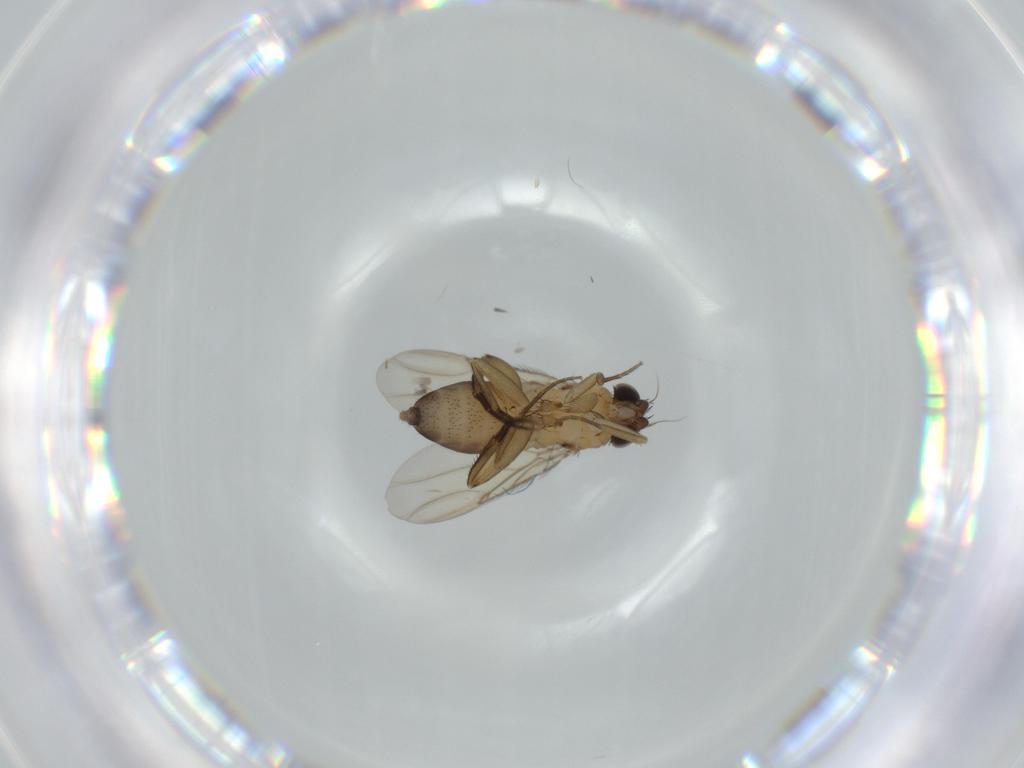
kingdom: Animalia
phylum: Arthropoda
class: Insecta
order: Diptera
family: Phoridae
